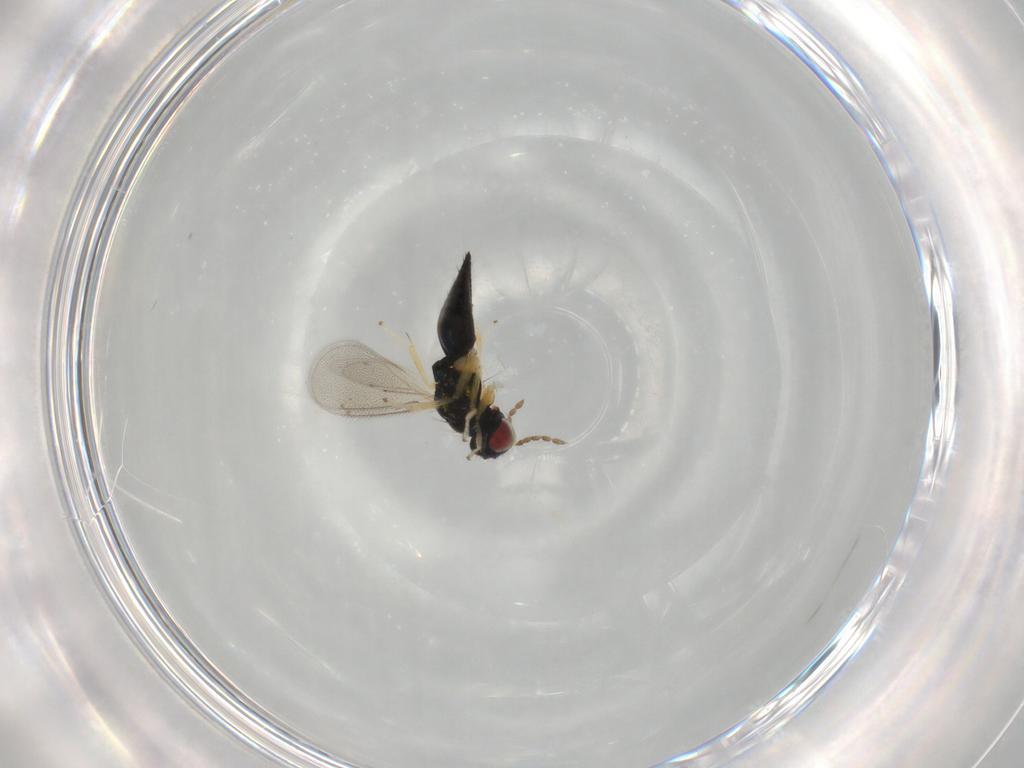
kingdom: Animalia
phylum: Arthropoda
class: Insecta
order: Hymenoptera
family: Eulophidae
